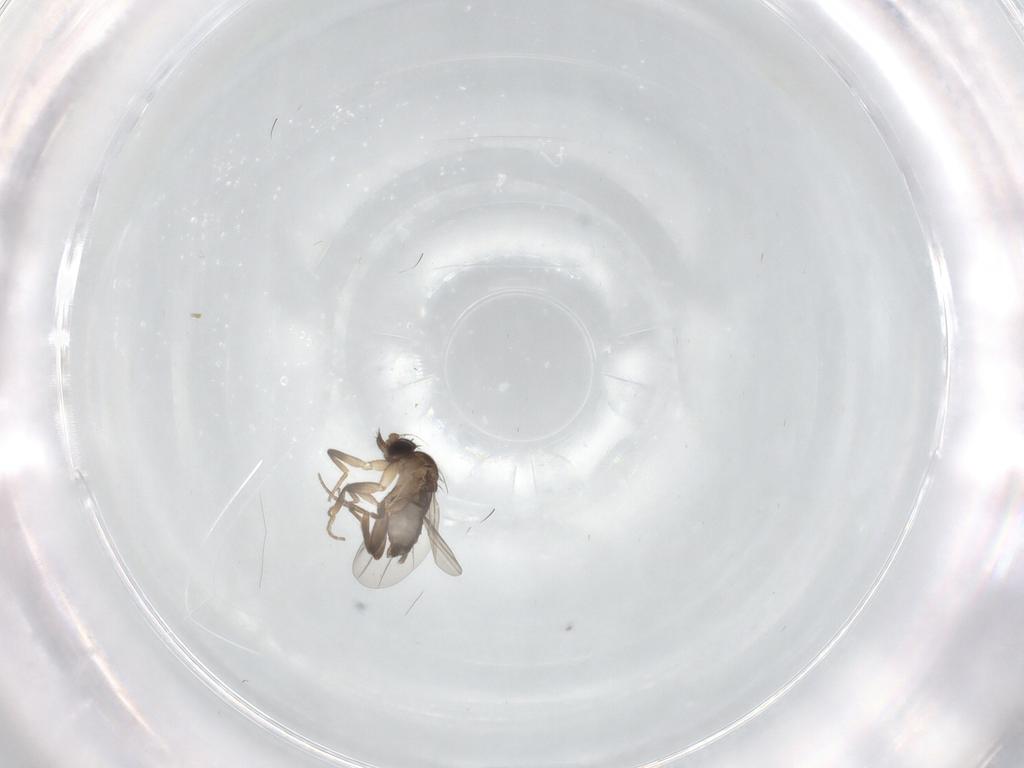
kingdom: Animalia
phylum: Arthropoda
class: Insecta
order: Diptera
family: Phoridae
